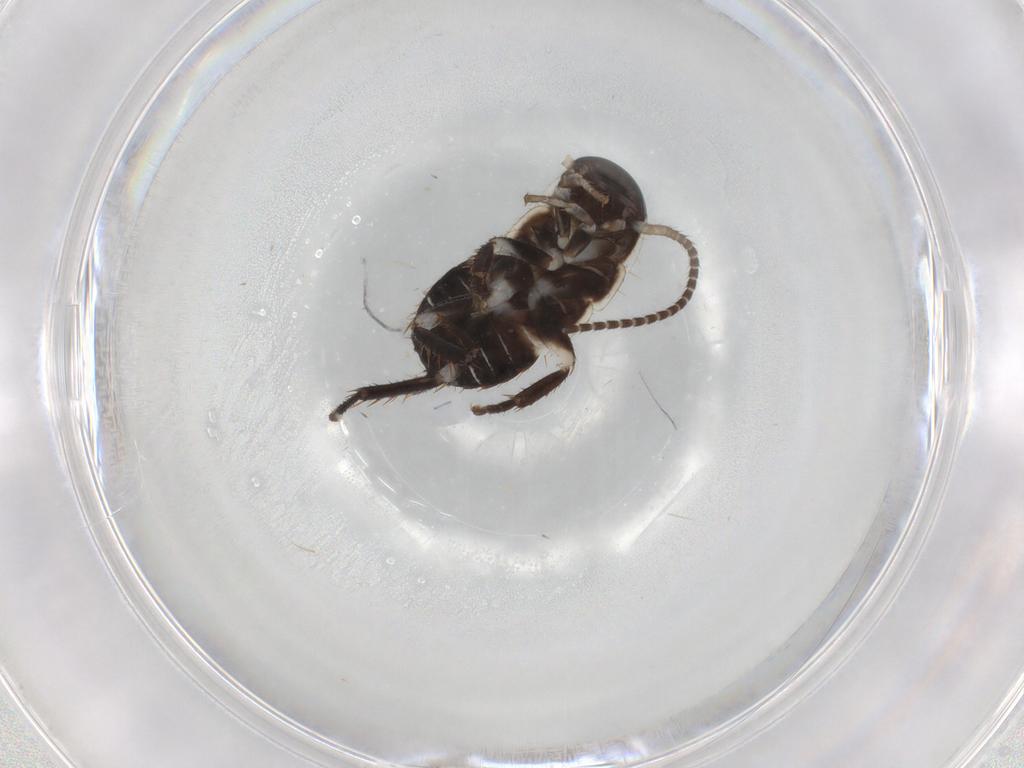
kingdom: Animalia
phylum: Arthropoda
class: Insecta
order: Blattodea
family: Ectobiidae
